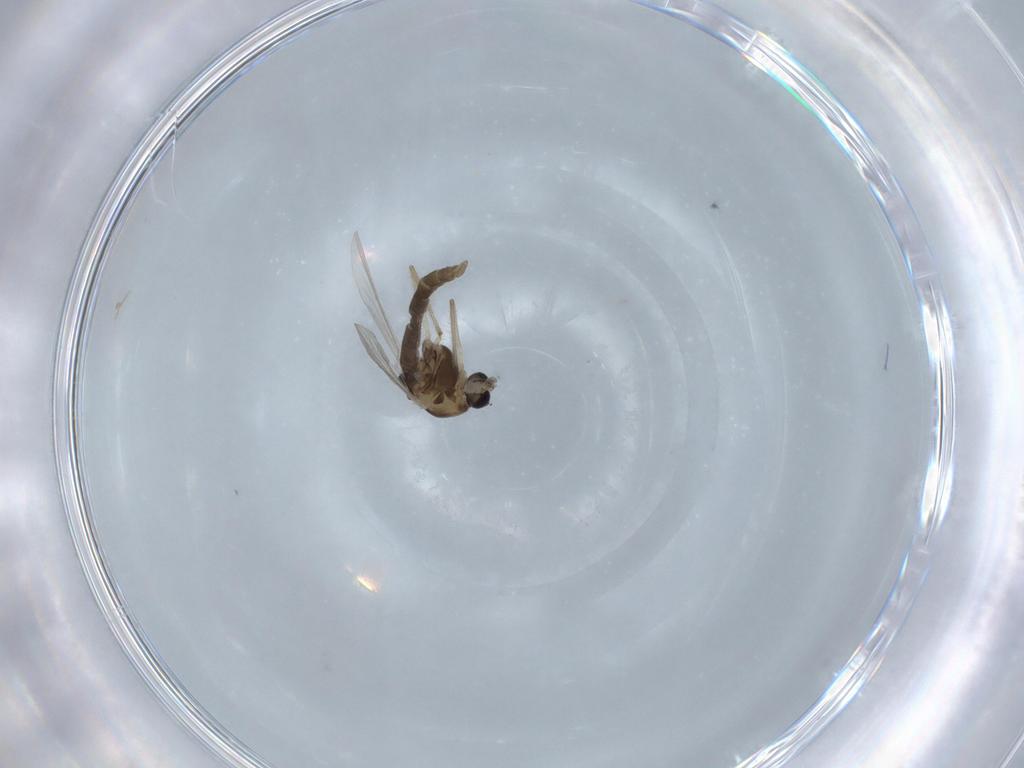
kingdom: Animalia
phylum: Arthropoda
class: Insecta
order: Diptera
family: Chironomidae
